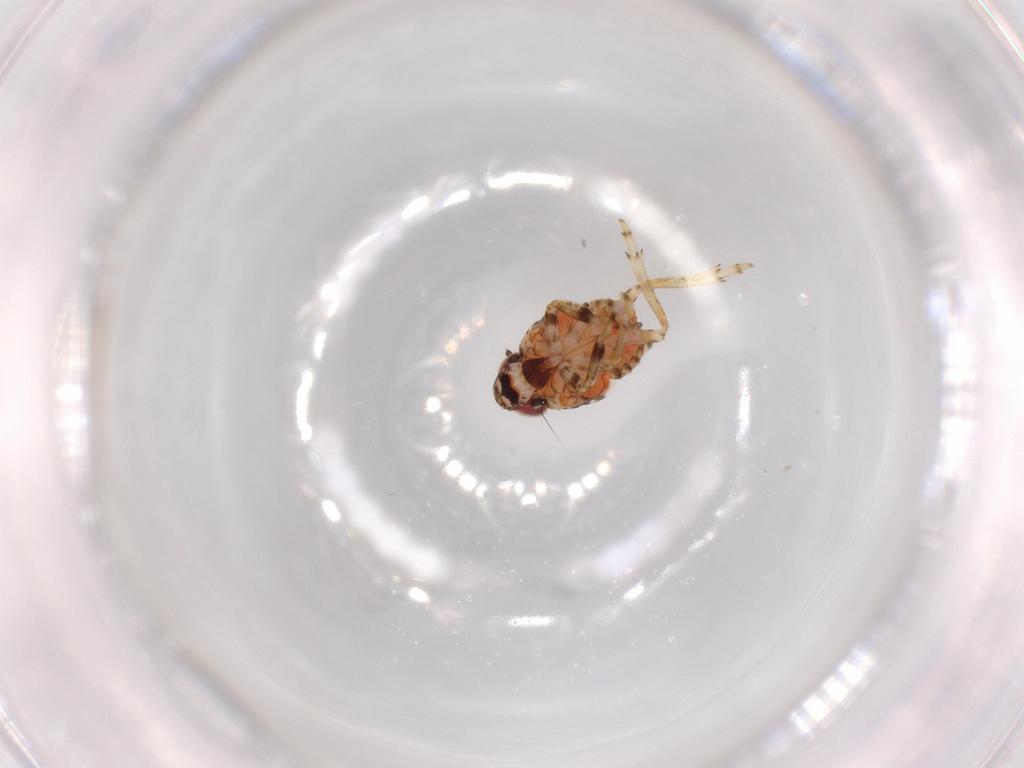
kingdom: Animalia
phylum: Arthropoda
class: Insecta
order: Hemiptera
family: Issidae
